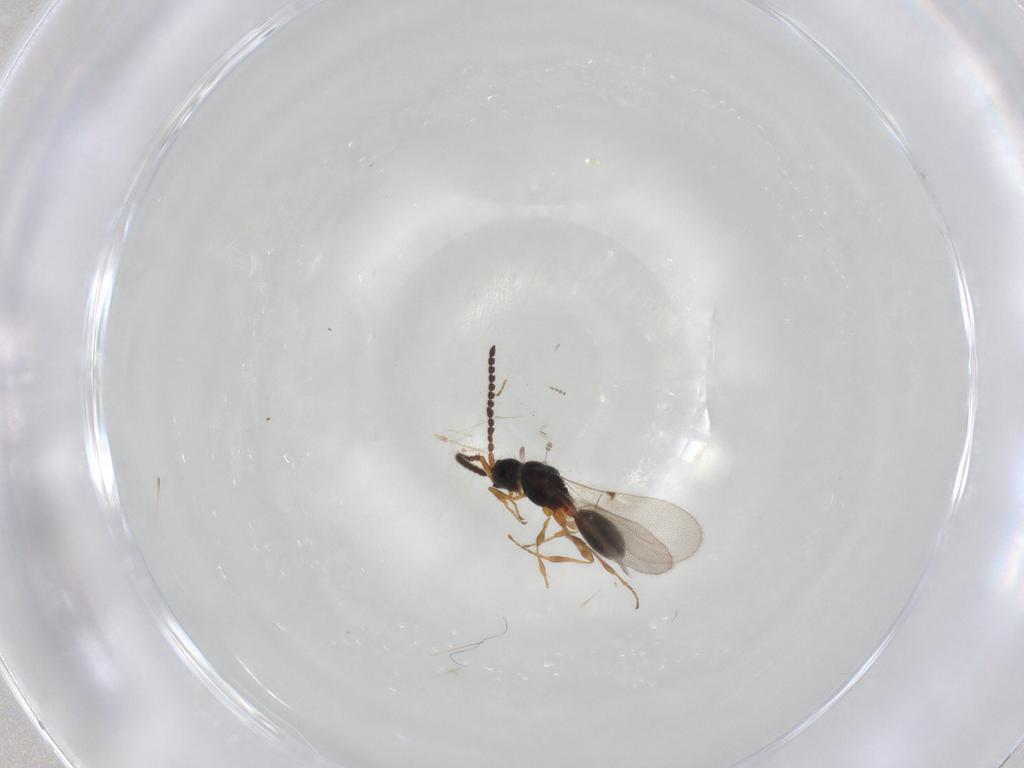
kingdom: Animalia
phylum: Arthropoda
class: Insecta
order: Hymenoptera
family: Diapriidae
